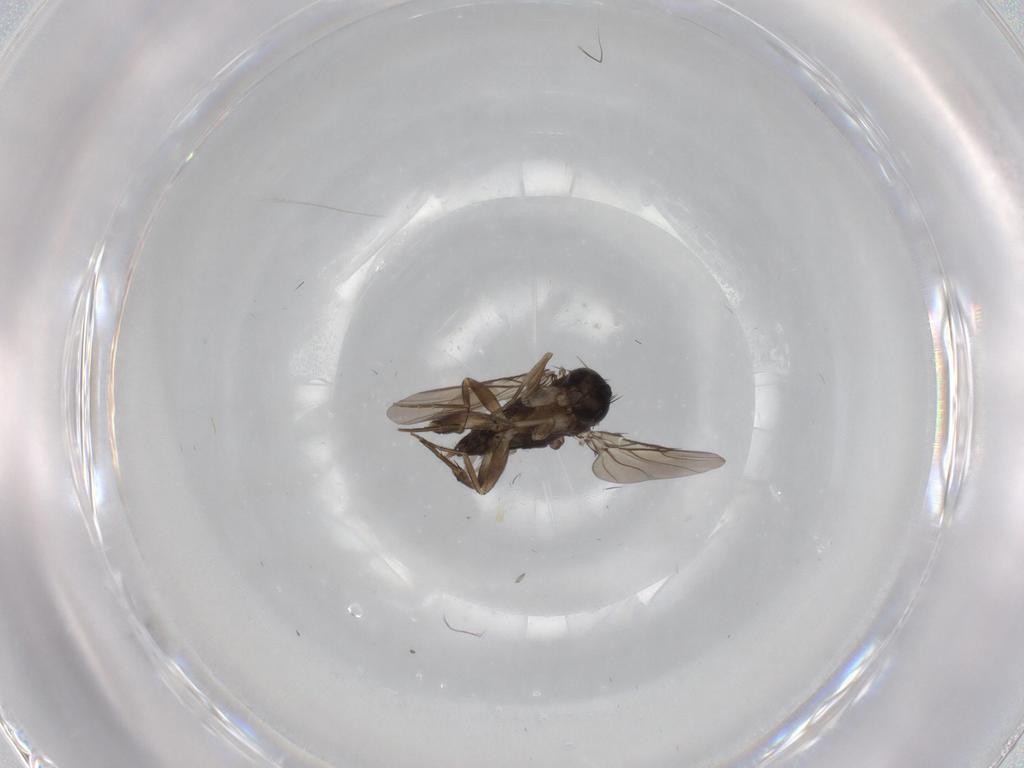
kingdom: Animalia
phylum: Arthropoda
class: Insecta
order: Diptera
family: Phoridae
